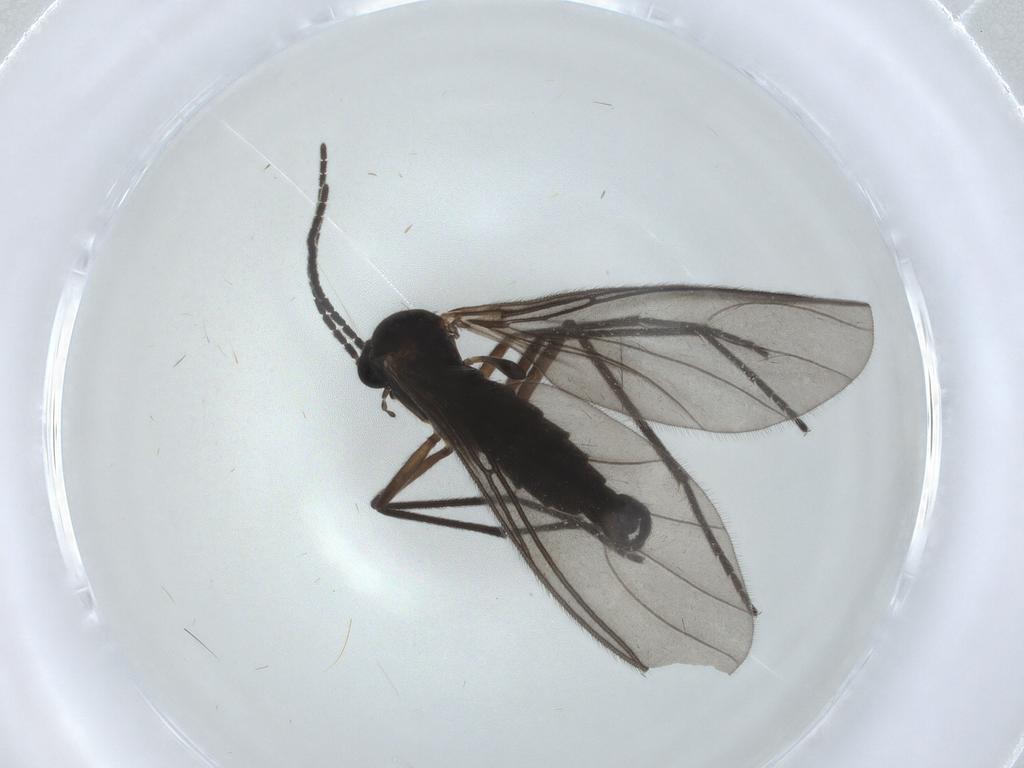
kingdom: Animalia
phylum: Arthropoda
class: Insecta
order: Diptera
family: Sciaridae
